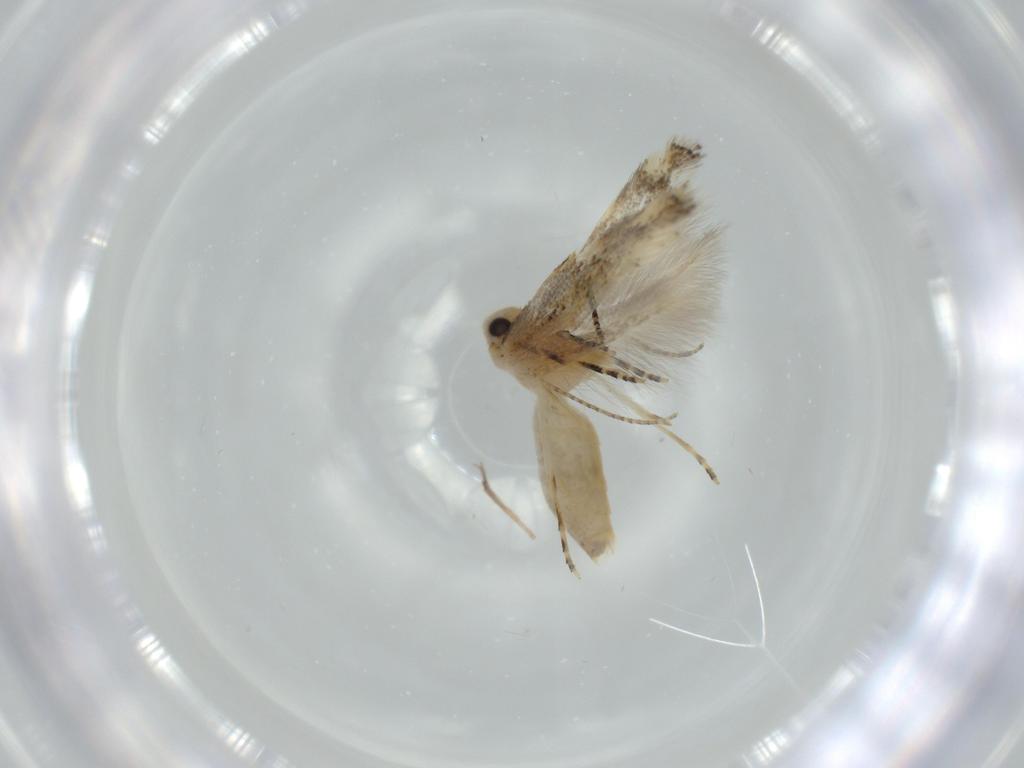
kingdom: Animalia
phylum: Arthropoda
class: Insecta
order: Lepidoptera
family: Bucculatricidae
